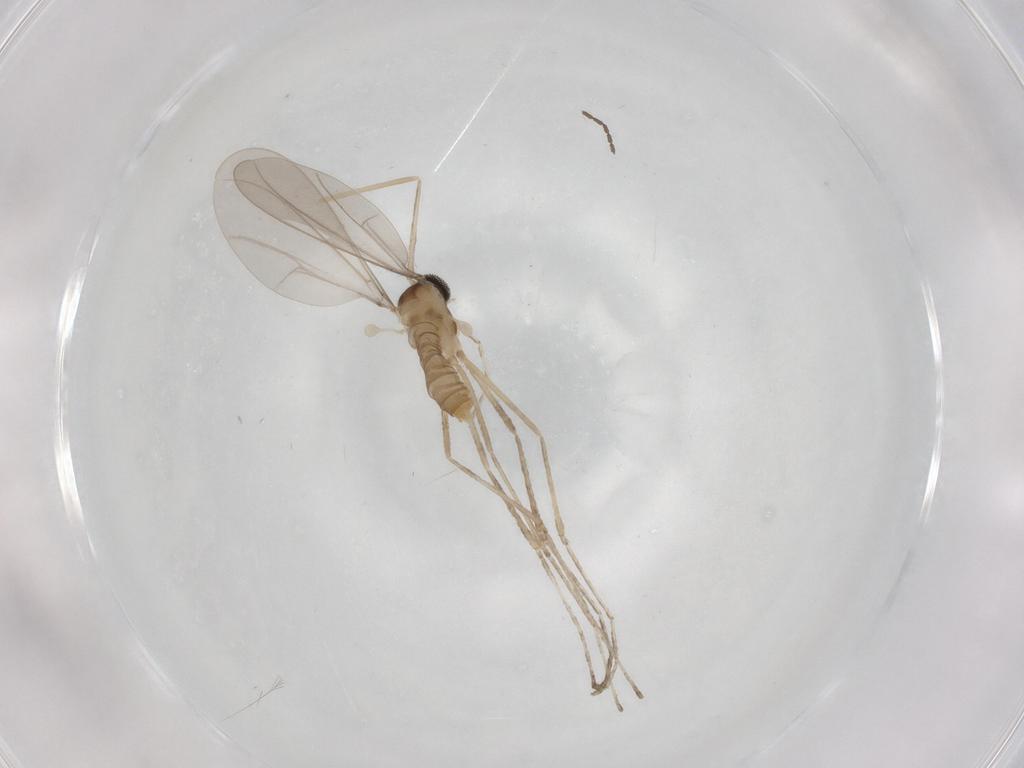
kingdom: Animalia
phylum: Arthropoda
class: Insecta
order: Diptera
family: Cecidomyiidae
